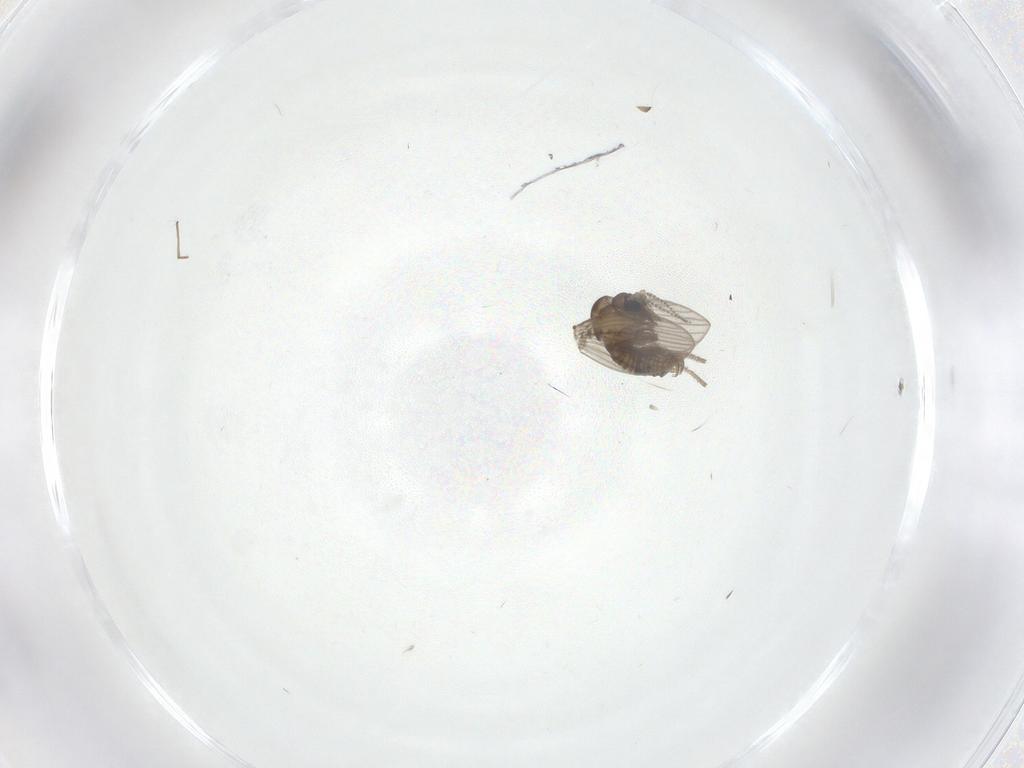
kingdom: Animalia
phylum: Arthropoda
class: Insecta
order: Diptera
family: Psychodidae
